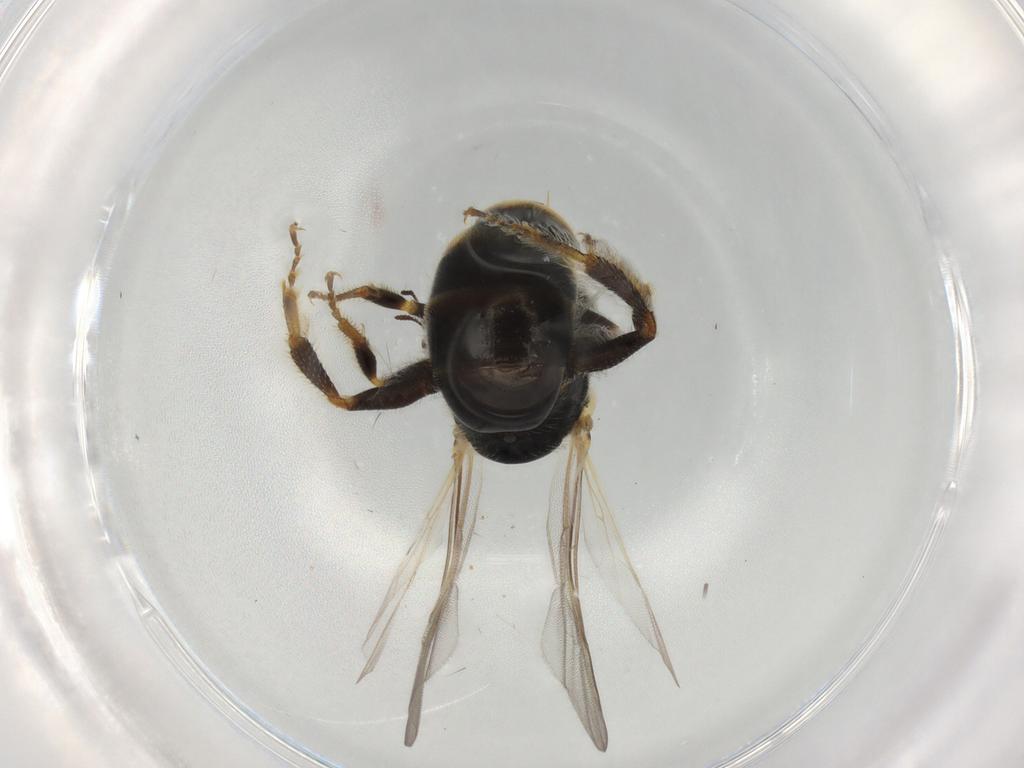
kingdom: Animalia
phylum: Arthropoda
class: Insecta
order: Hymenoptera
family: Scelionidae
